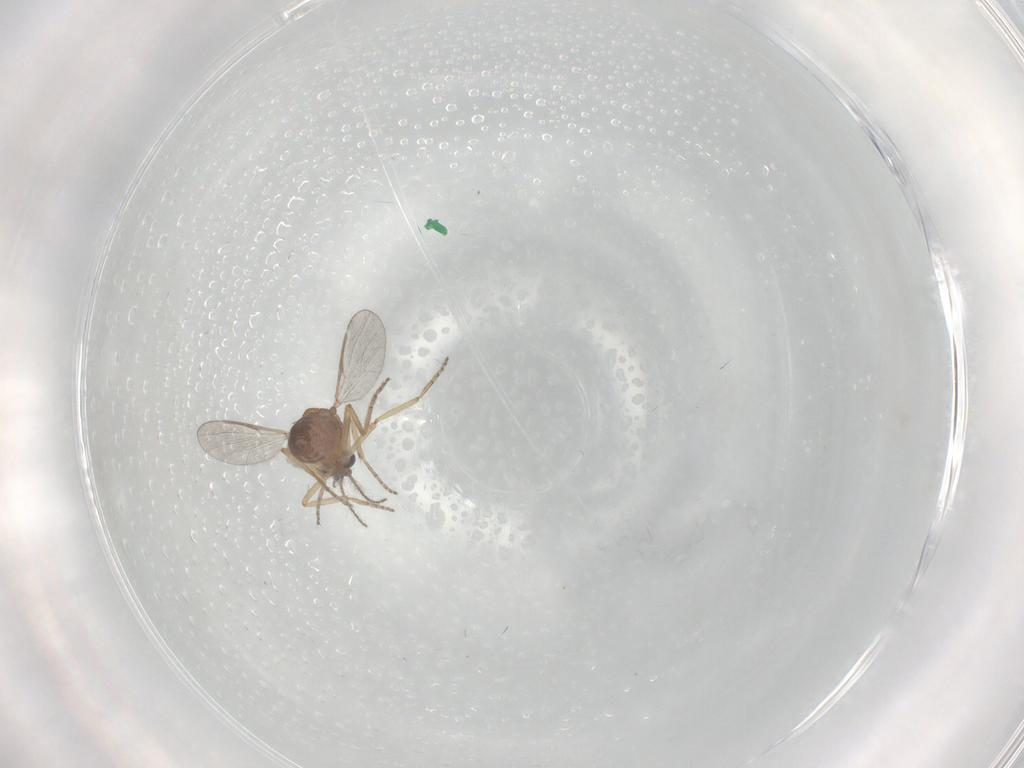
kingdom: Animalia
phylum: Arthropoda
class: Insecta
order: Diptera
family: Ceratopogonidae
